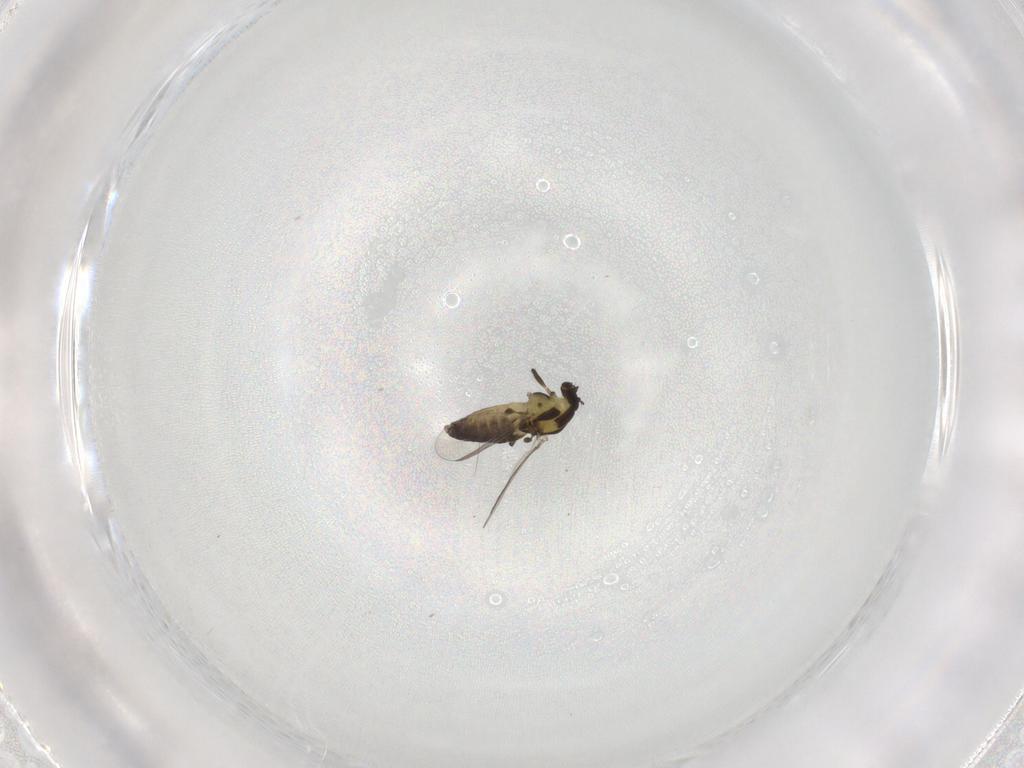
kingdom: Animalia
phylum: Arthropoda
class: Insecta
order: Diptera
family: Chironomidae
